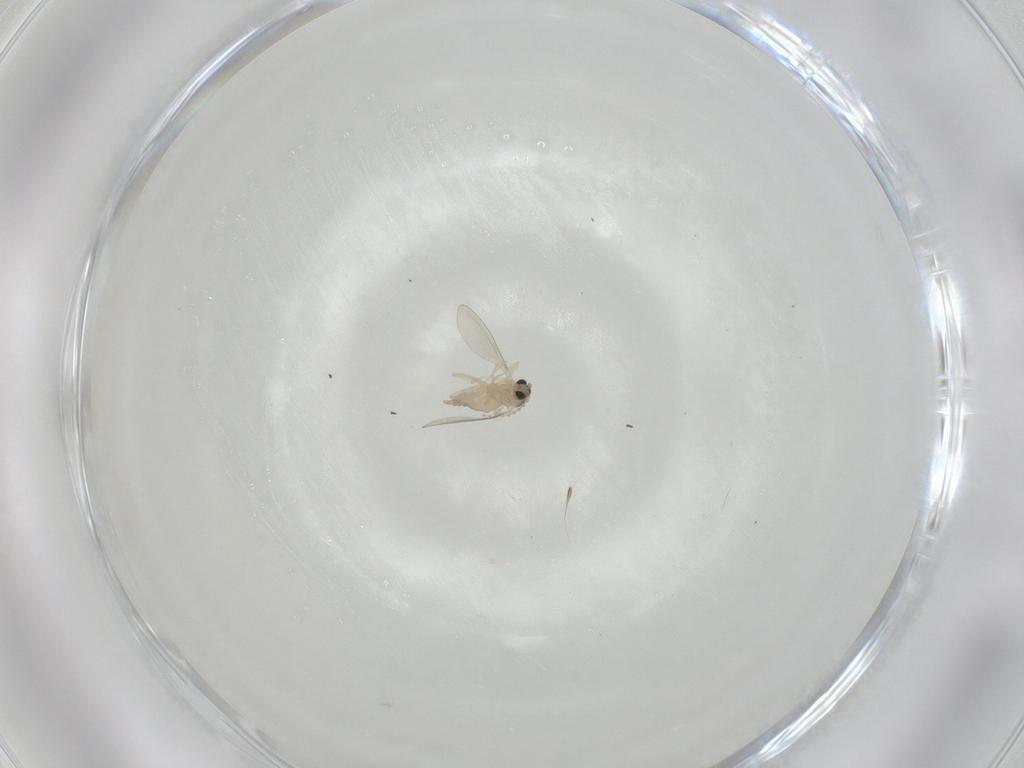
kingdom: Animalia
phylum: Arthropoda
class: Insecta
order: Diptera
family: Cecidomyiidae
